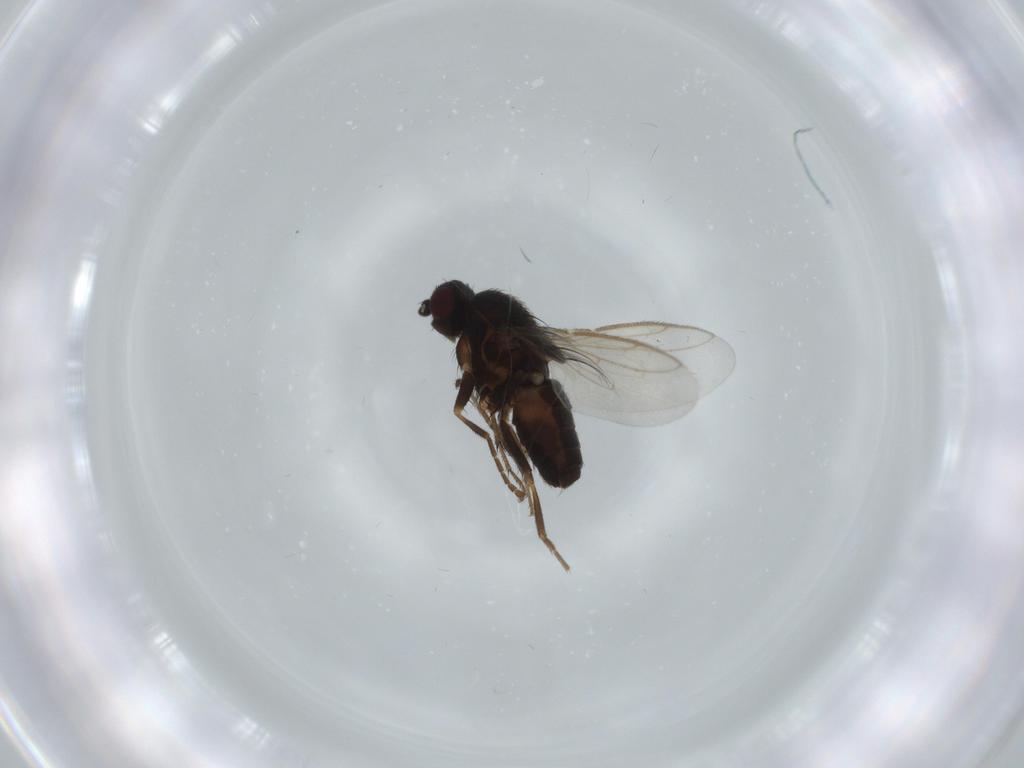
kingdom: Animalia
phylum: Arthropoda
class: Insecta
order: Diptera
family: Sphaeroceridae
